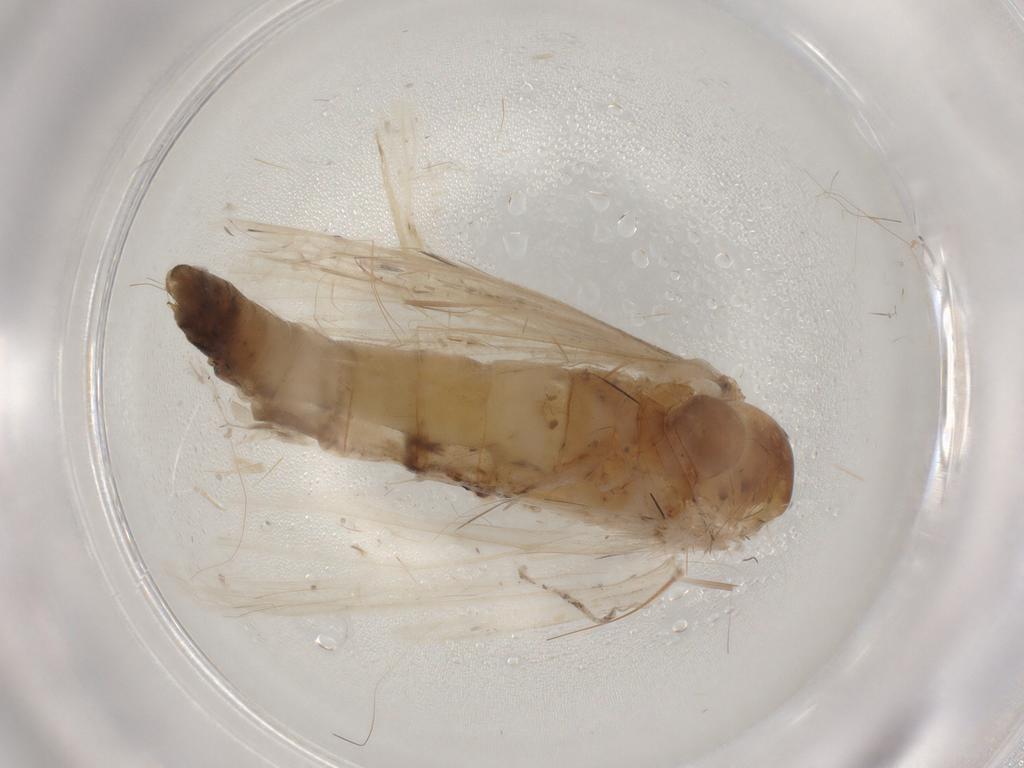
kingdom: Animalia
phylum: Arthropoda
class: Insecta
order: Lepidoptera
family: Erebidae
